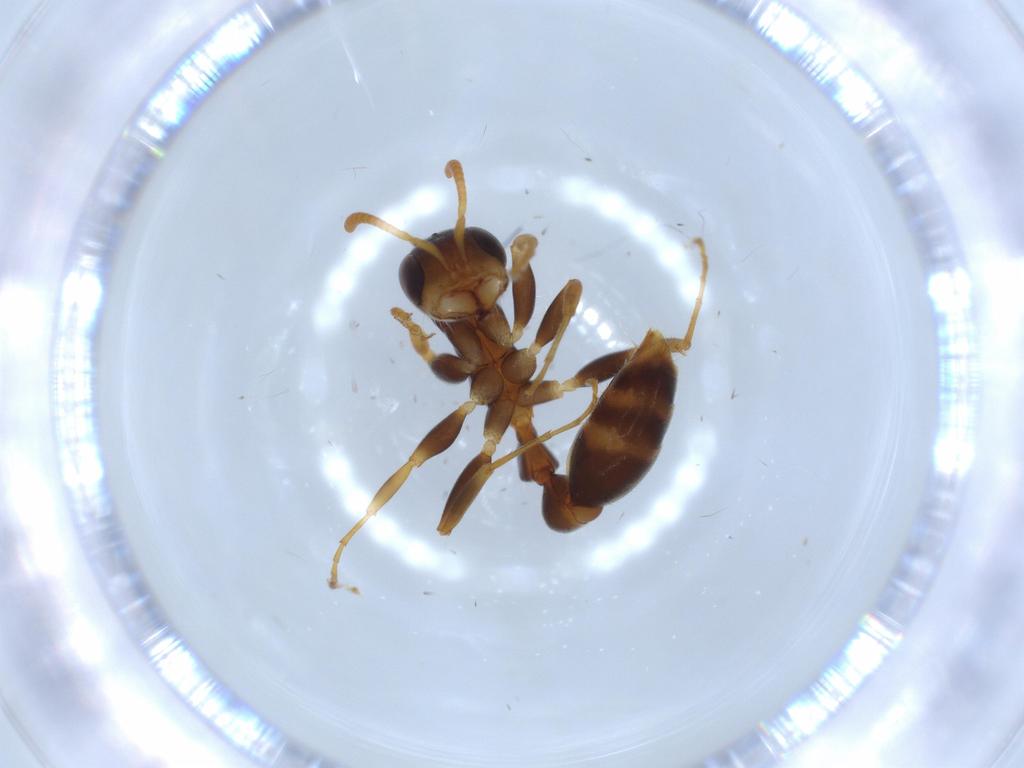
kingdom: Animalia
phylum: Arthropoda
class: Insecta
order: Hymenoptera
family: Formicidae
